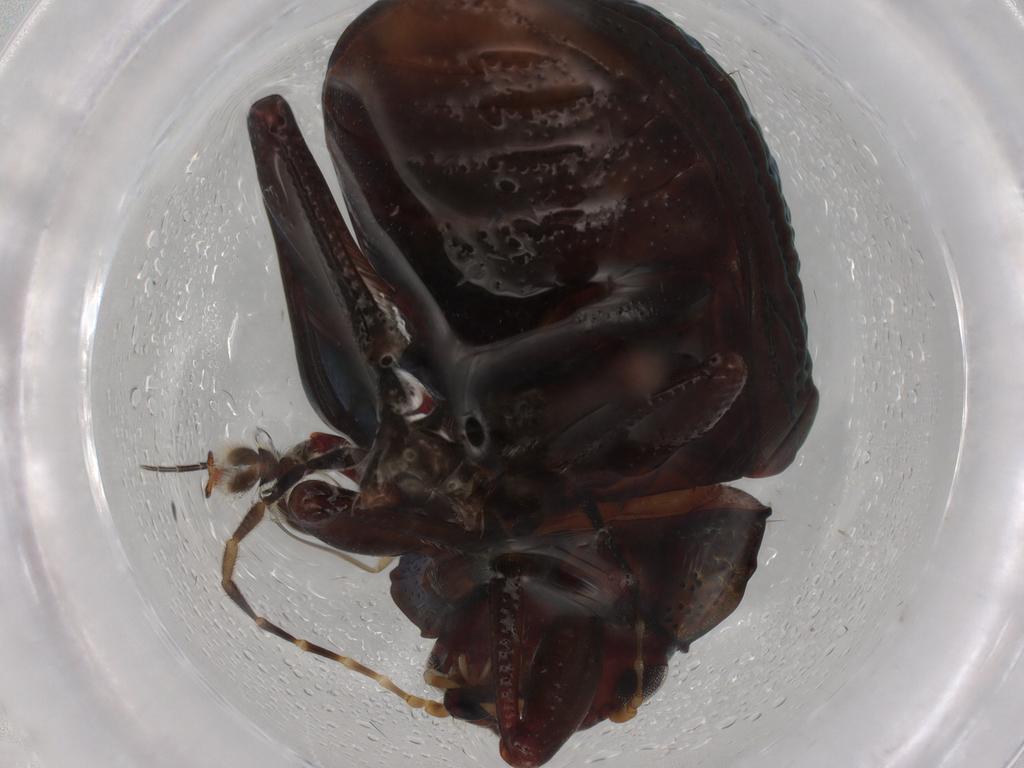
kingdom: Animalia
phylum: Arthropoda
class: Insecta
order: Coleoptera
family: Chrysomelidae
